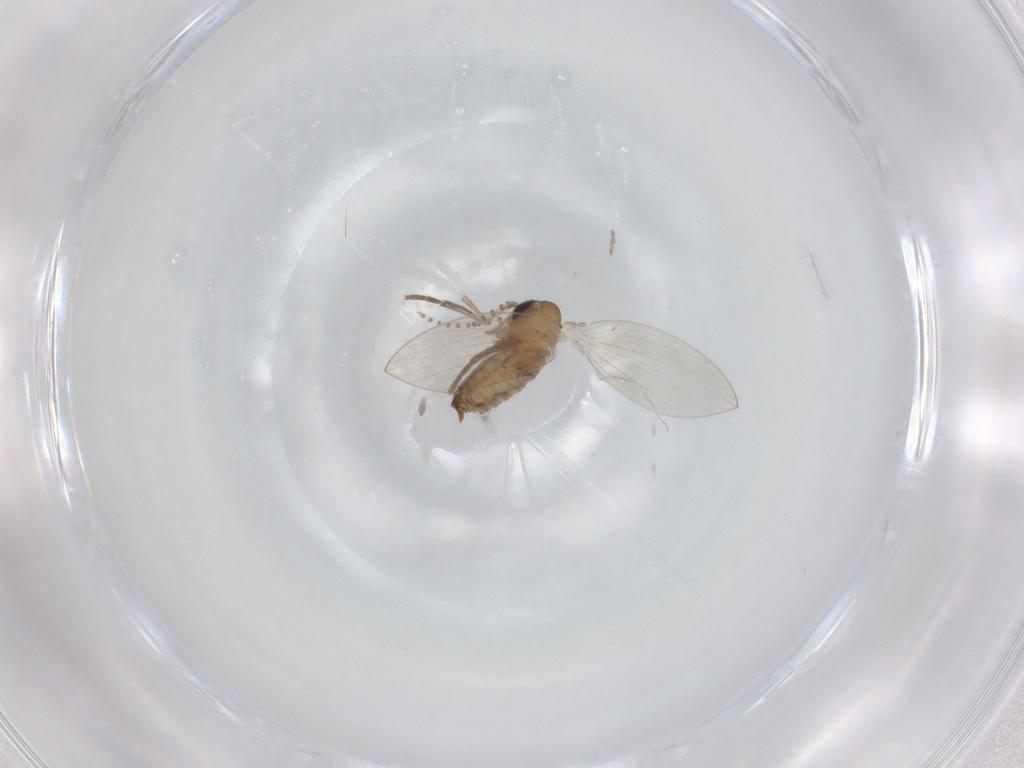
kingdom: Animalia
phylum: Arthropoda
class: Insecta
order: Diptera
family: Psychodidae
